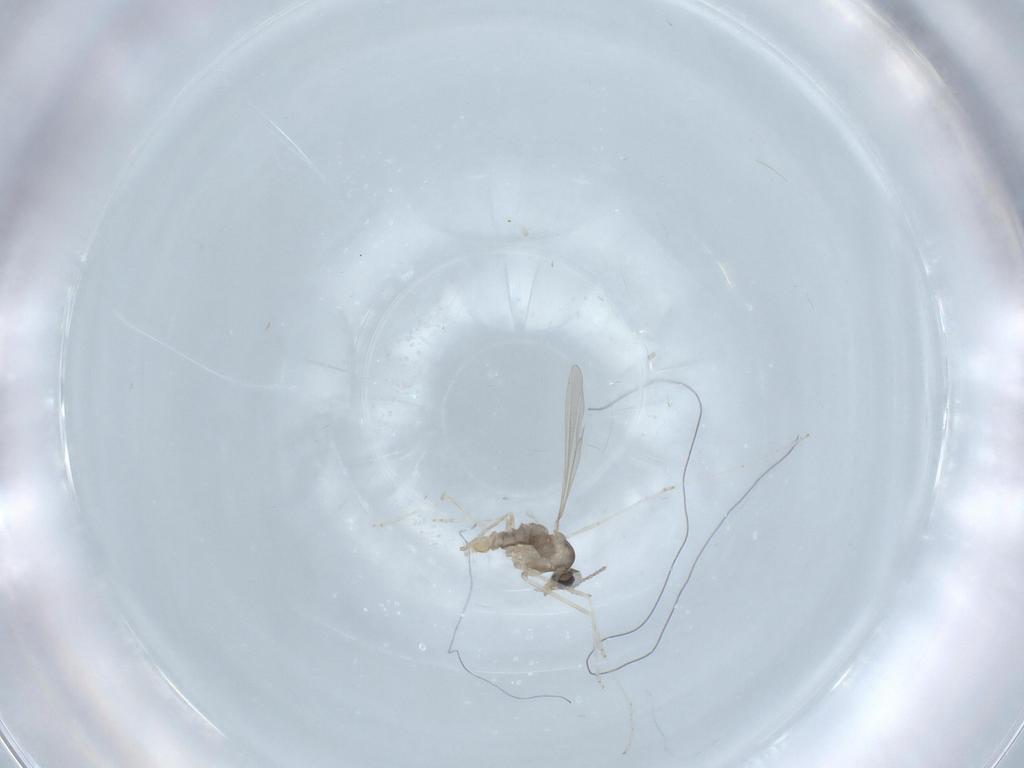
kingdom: Animalia
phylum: Arthropoda
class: Insecta
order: Diptera
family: Cecidomyiidae
